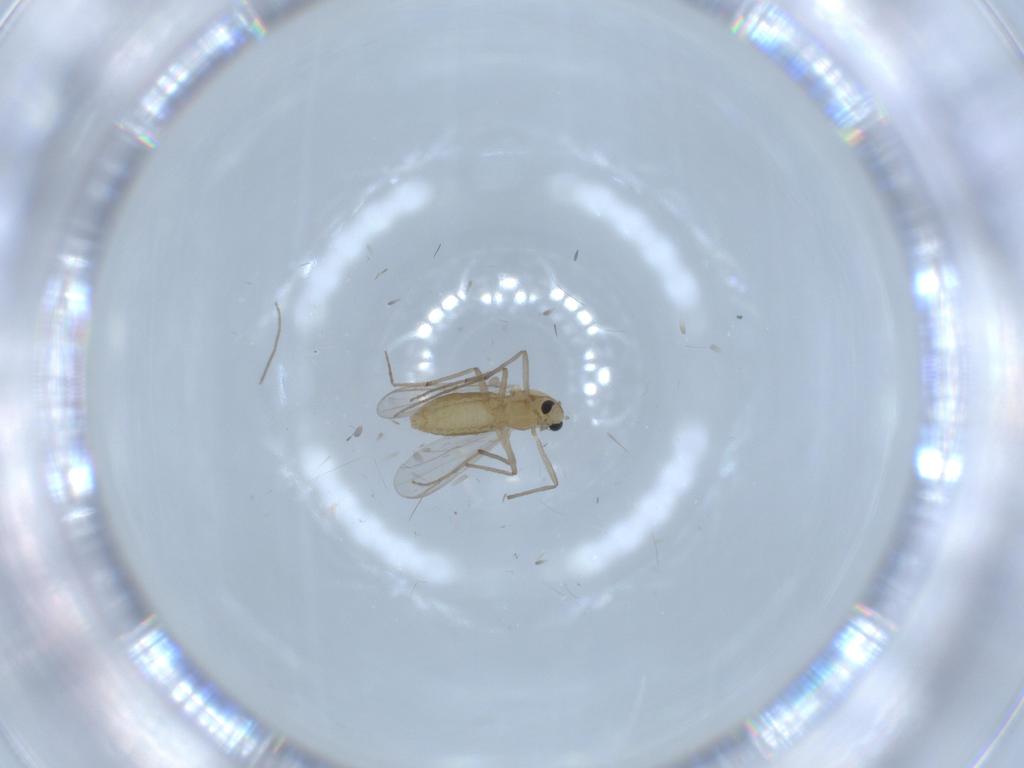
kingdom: Animalia
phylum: Arthropoda
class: Insecta
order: Diptera
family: Chironomidae
